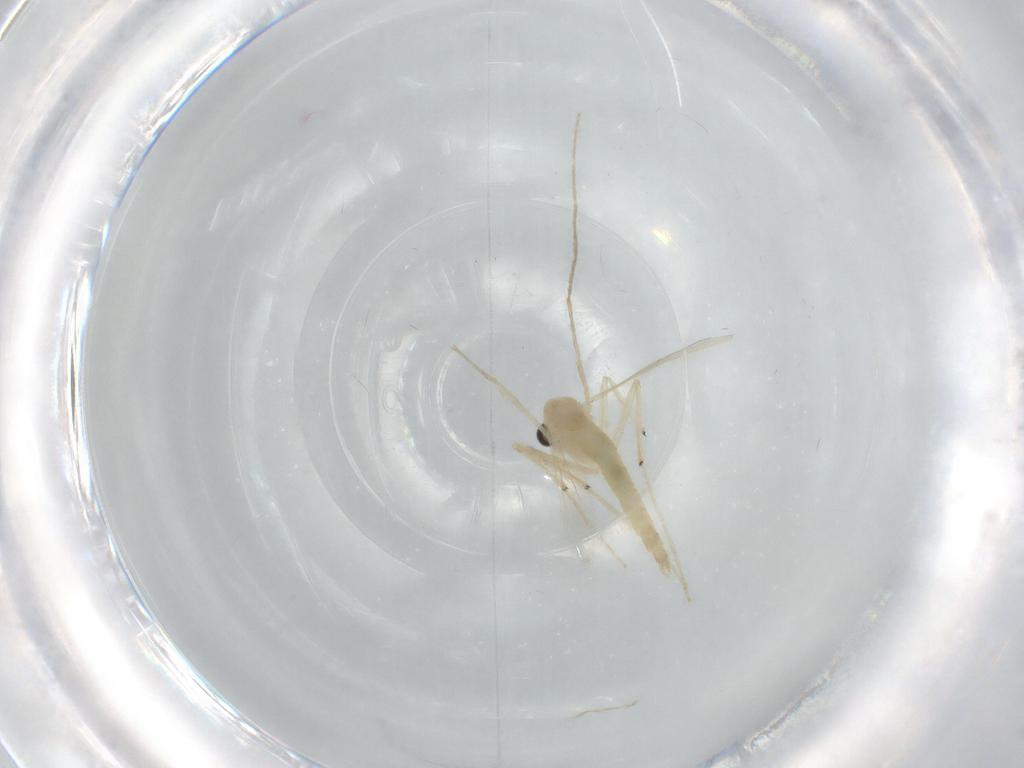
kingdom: Animalia
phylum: Arthropoda
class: Insecta
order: Diptera
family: Chironomidae
